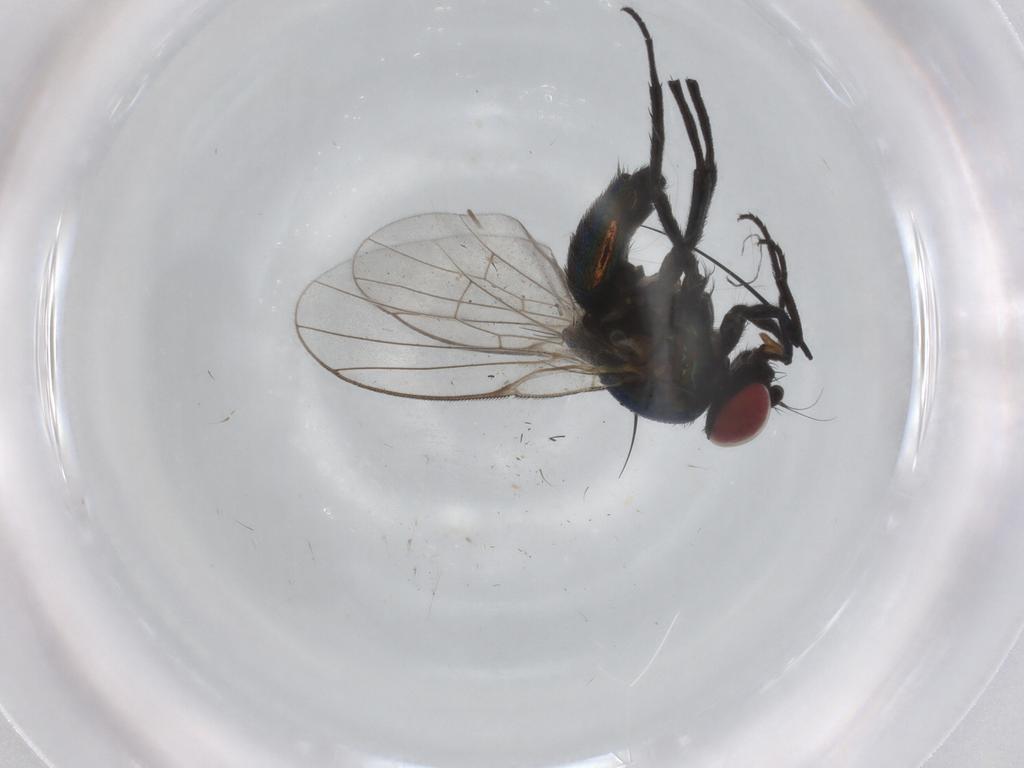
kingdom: Animalia
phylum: Arthropoda
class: Insecta
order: Diptera
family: Agromyzidae
